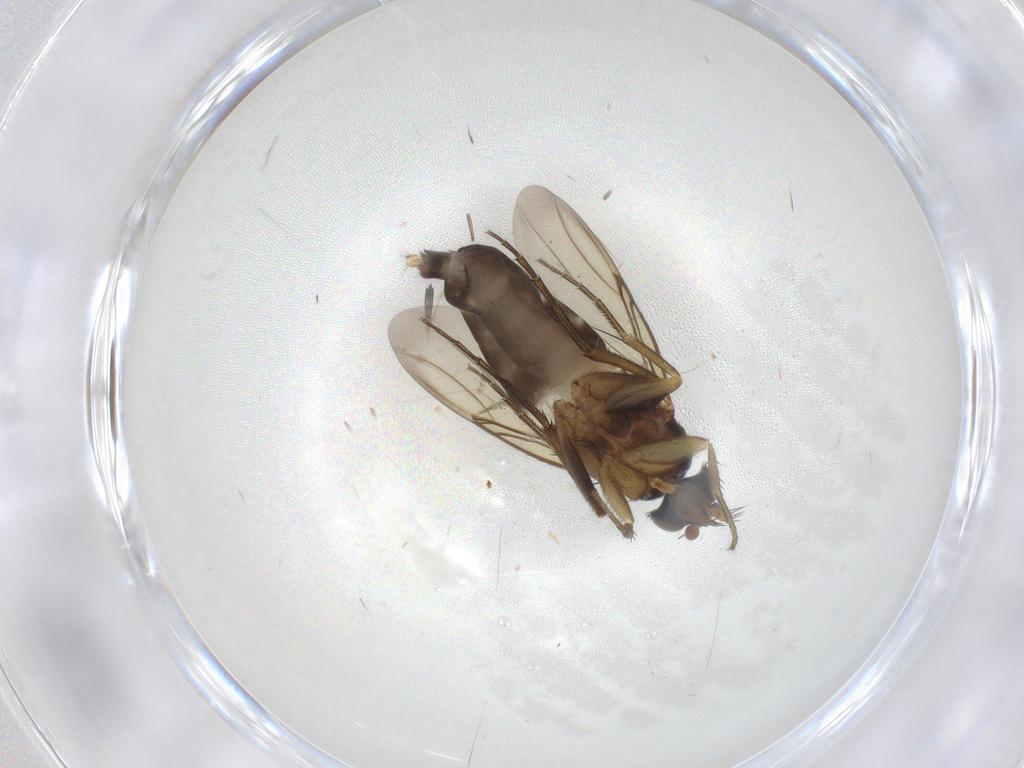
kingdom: Animalia
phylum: Arthropoda
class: Insecta
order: Diptera
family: Phoridae
